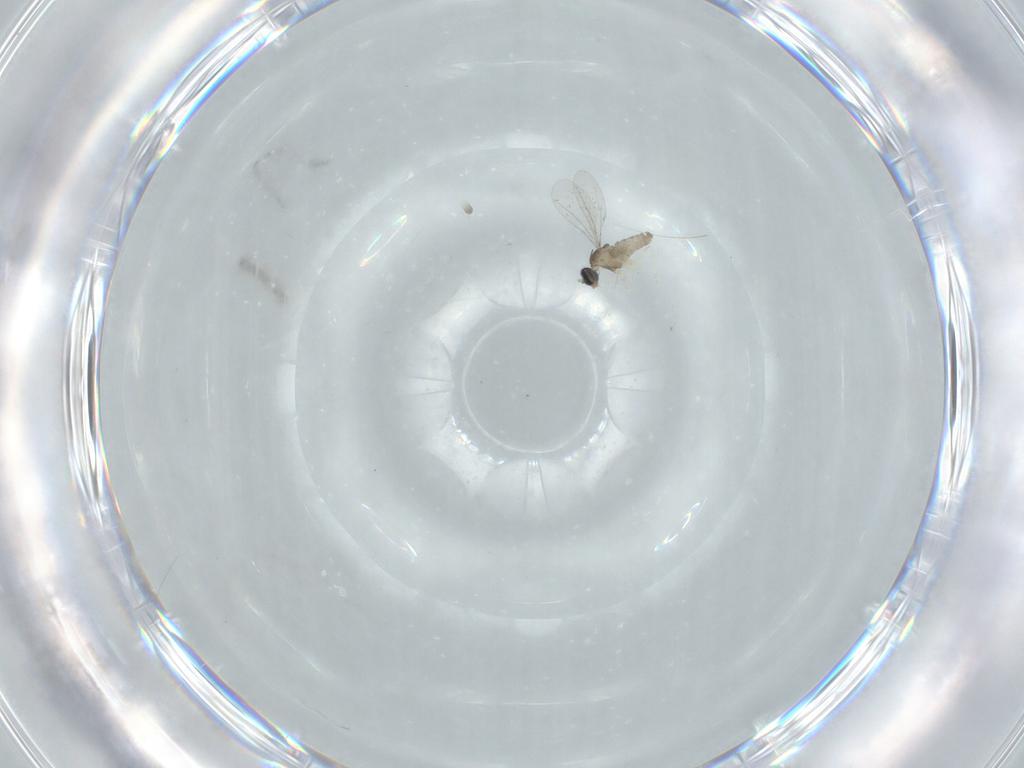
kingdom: Animalia
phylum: Arthropoda
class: Insecta
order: Diptera
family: Cecidomyiidae
